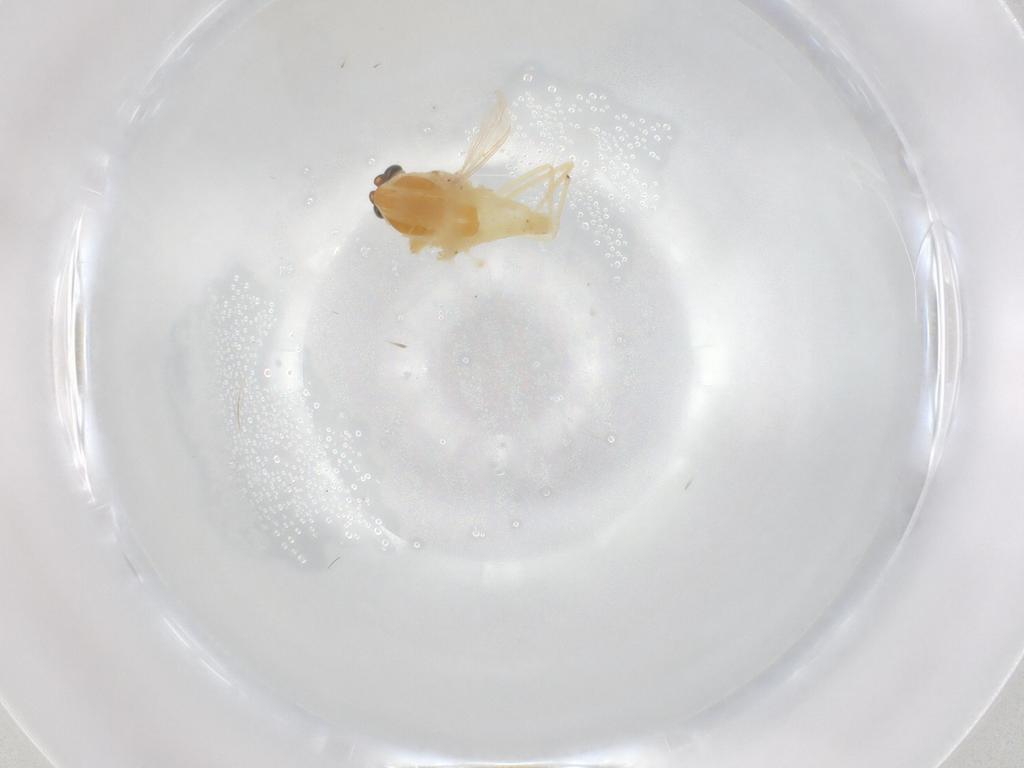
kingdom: Animalia
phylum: Arthropoda
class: Insecta
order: Diptera
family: Chironomidae
